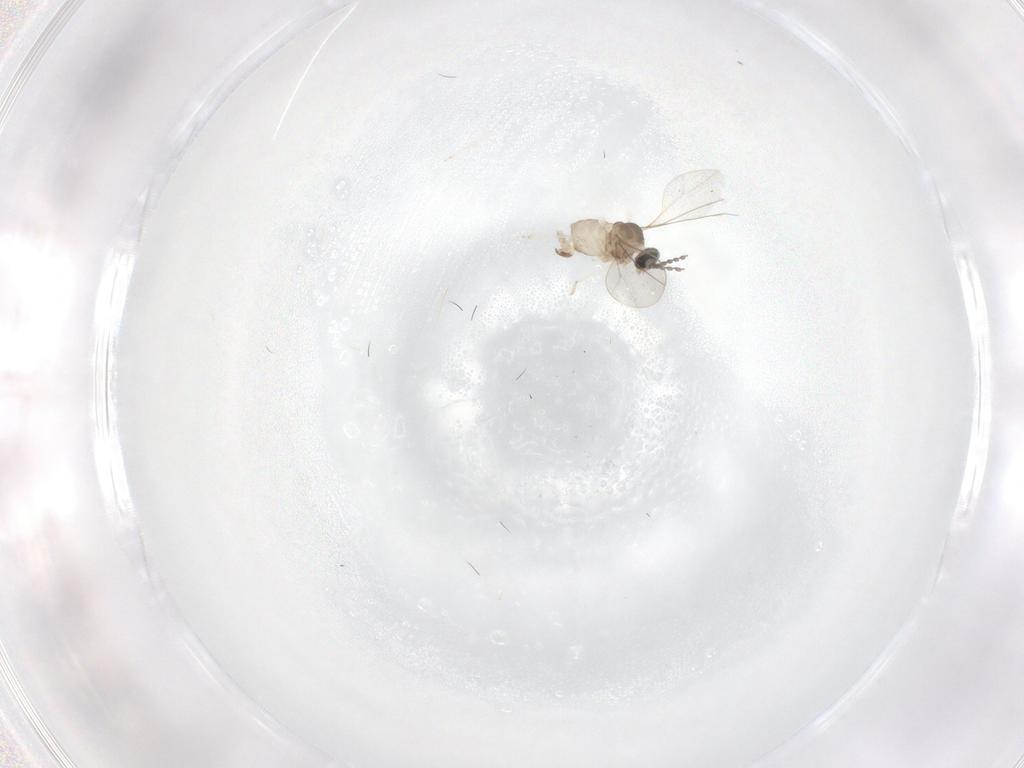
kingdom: Animalia
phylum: Arthropoda
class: Insecta
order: Diptera
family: Cecidomyiidae
